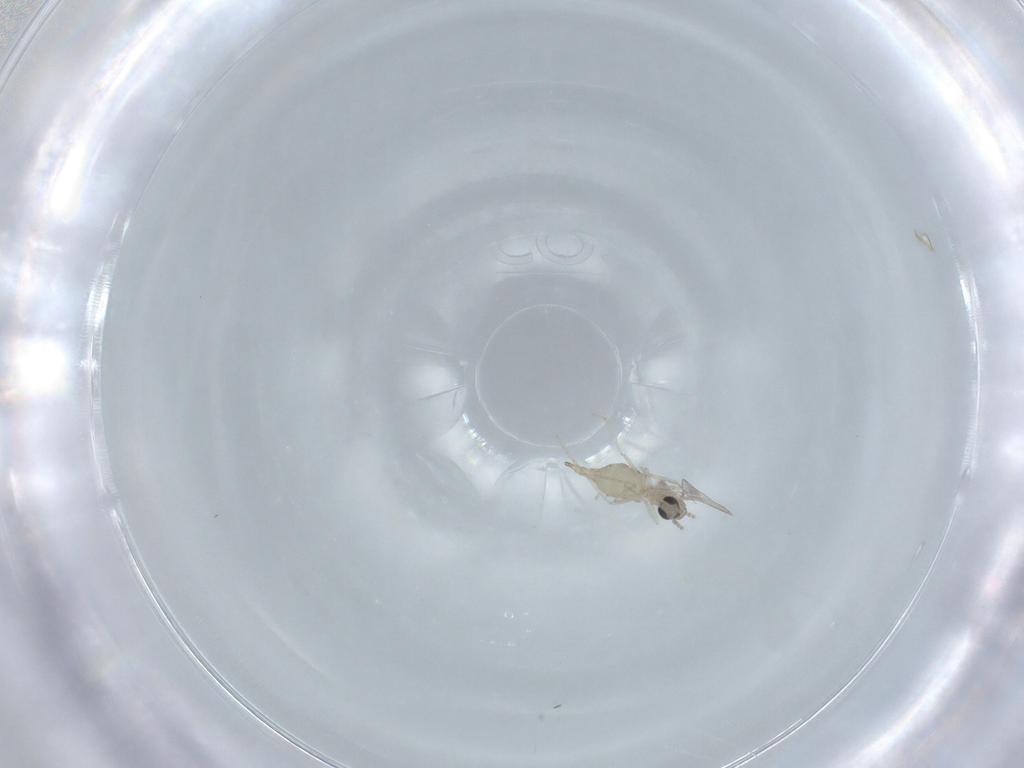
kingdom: Animalia
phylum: Arthropoda
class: Insecta
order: Diptera
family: Cecidomyiidae
